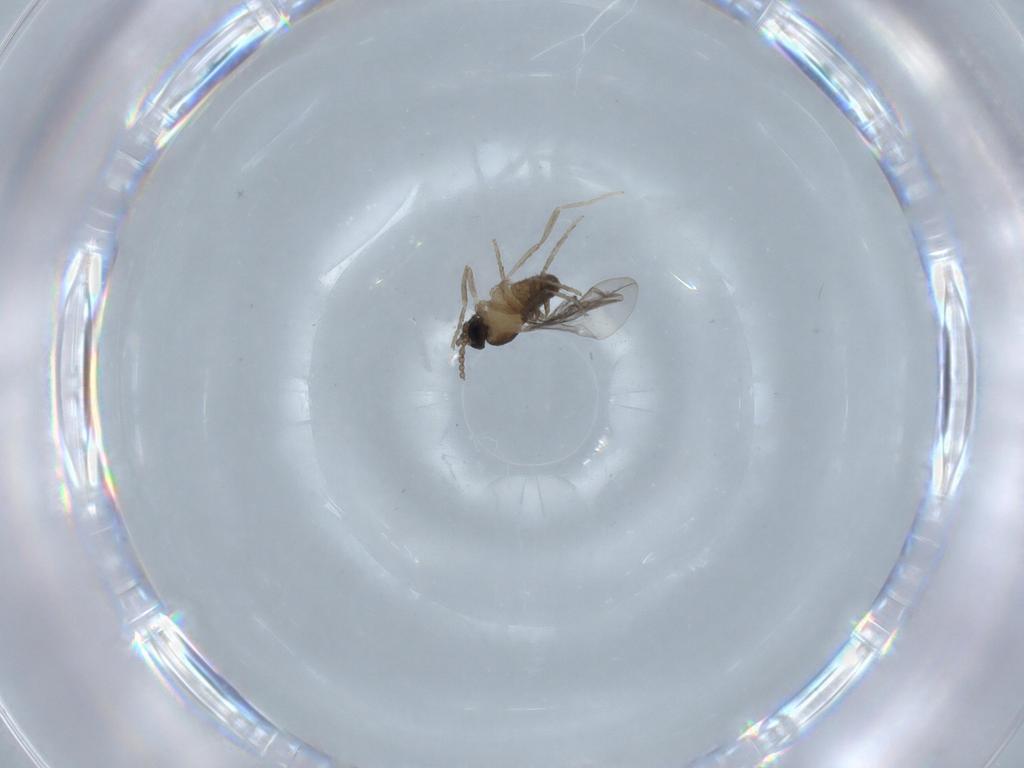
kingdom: Animalia
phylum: Arthropoda
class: Insecta
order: Diptera
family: Cecidomyiidae
